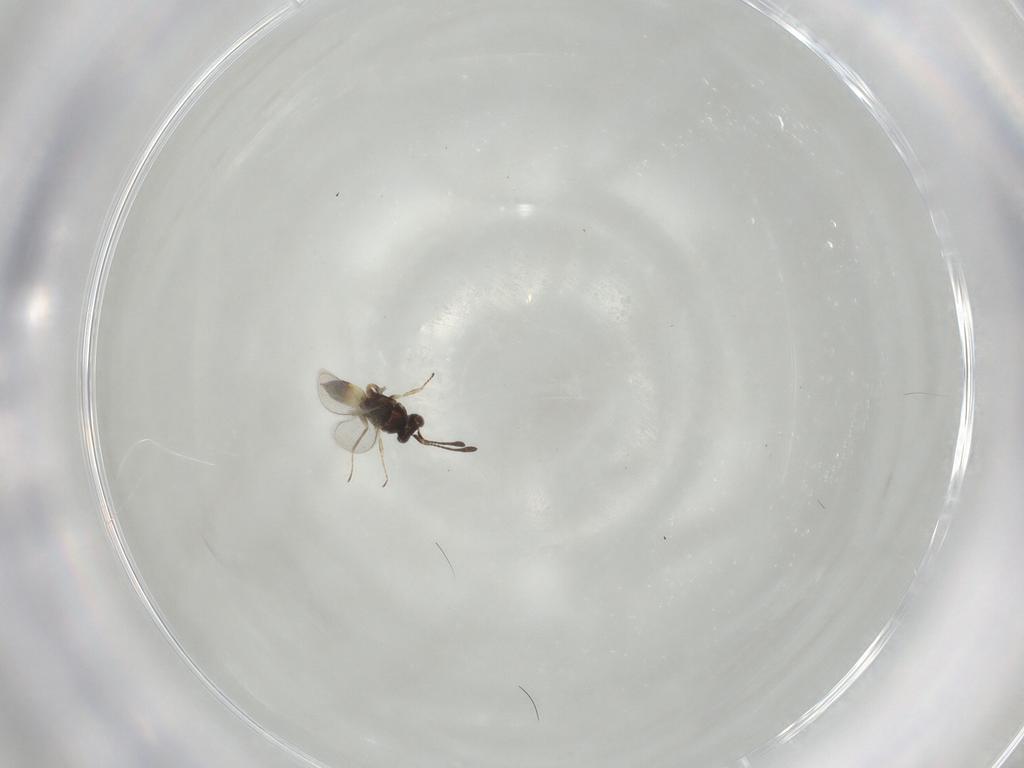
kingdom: Animalia
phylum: Arthropoda
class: Insecta
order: Hymenoptera
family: Mymaridae
